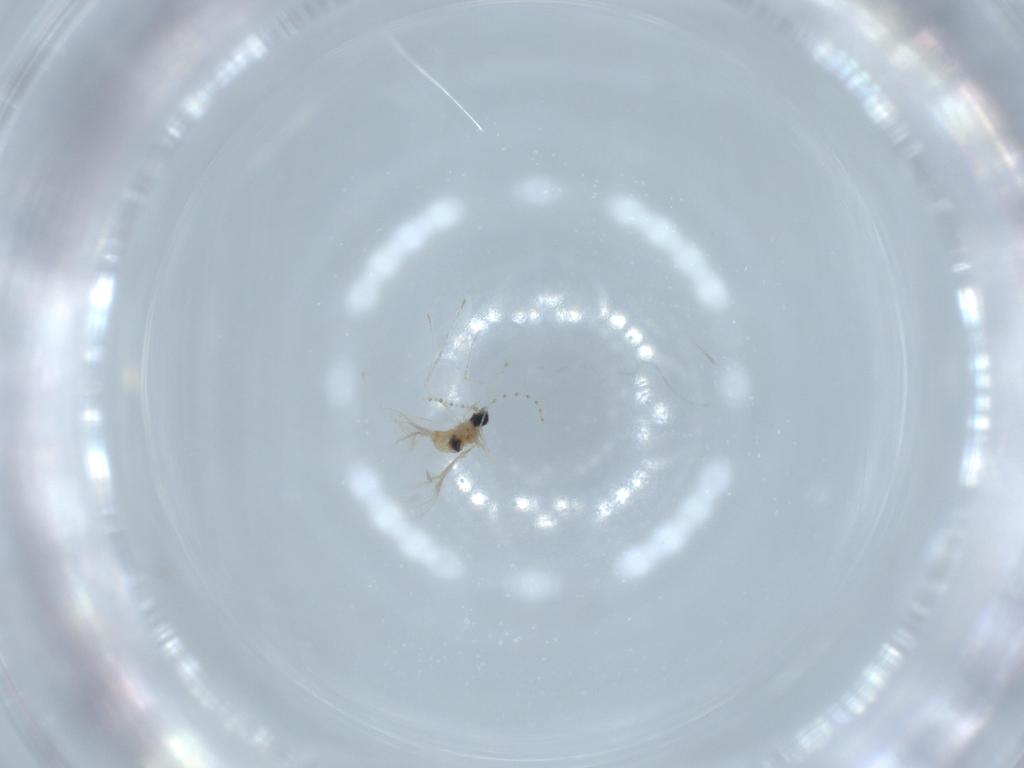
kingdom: Animalia
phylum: Arthropoda
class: Insecta
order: Diptera
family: Cecidomyiidae
